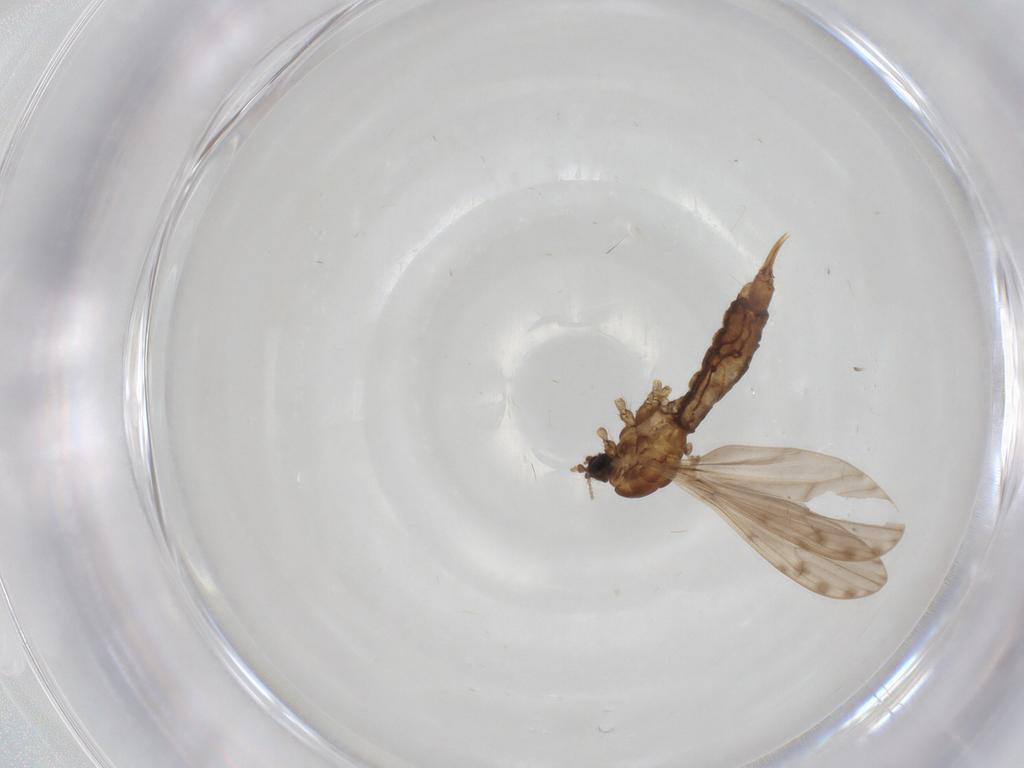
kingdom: Animalia
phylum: Arthropoda
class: Insecta
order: Diptera
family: Limoniidae
